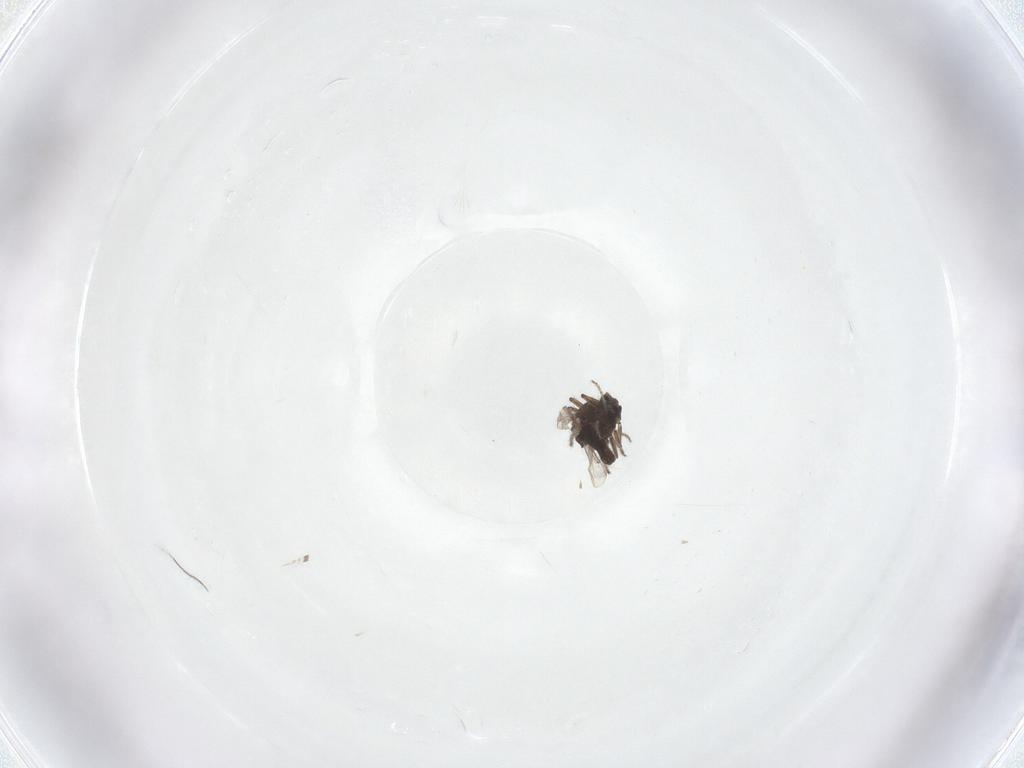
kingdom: Animalia
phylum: Arthropoda
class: Insecta
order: Diptera
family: Ceratopogonidae
